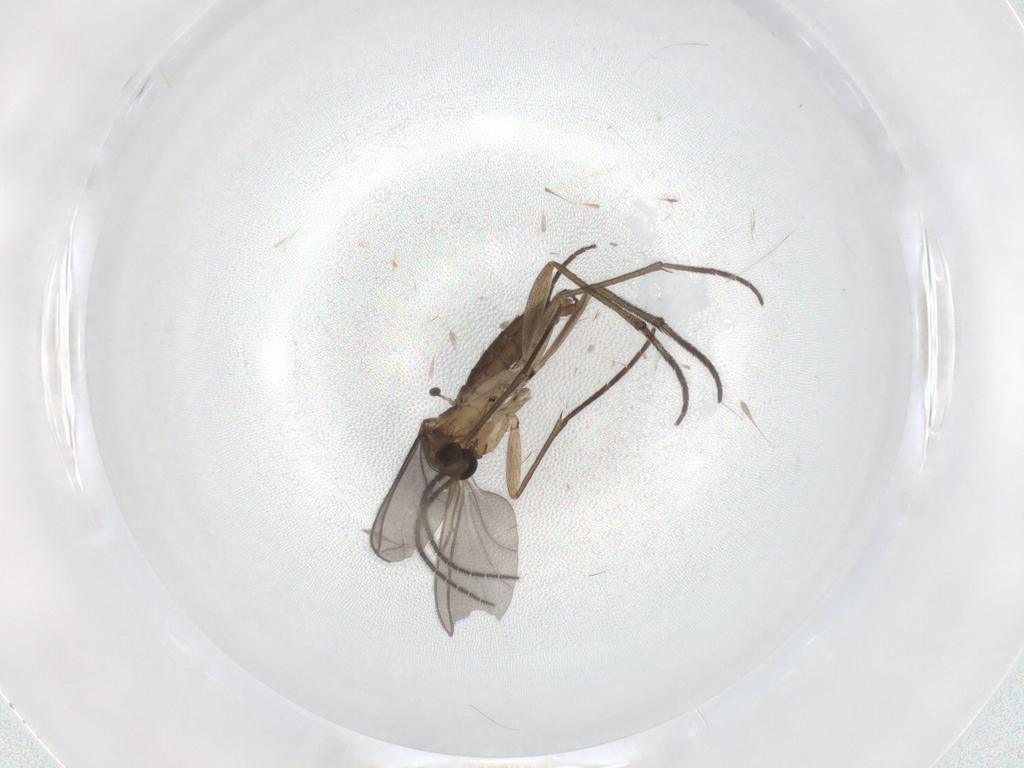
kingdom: Animalia
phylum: Arthropoda
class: Insecta
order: Diptera
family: Sciaridae
